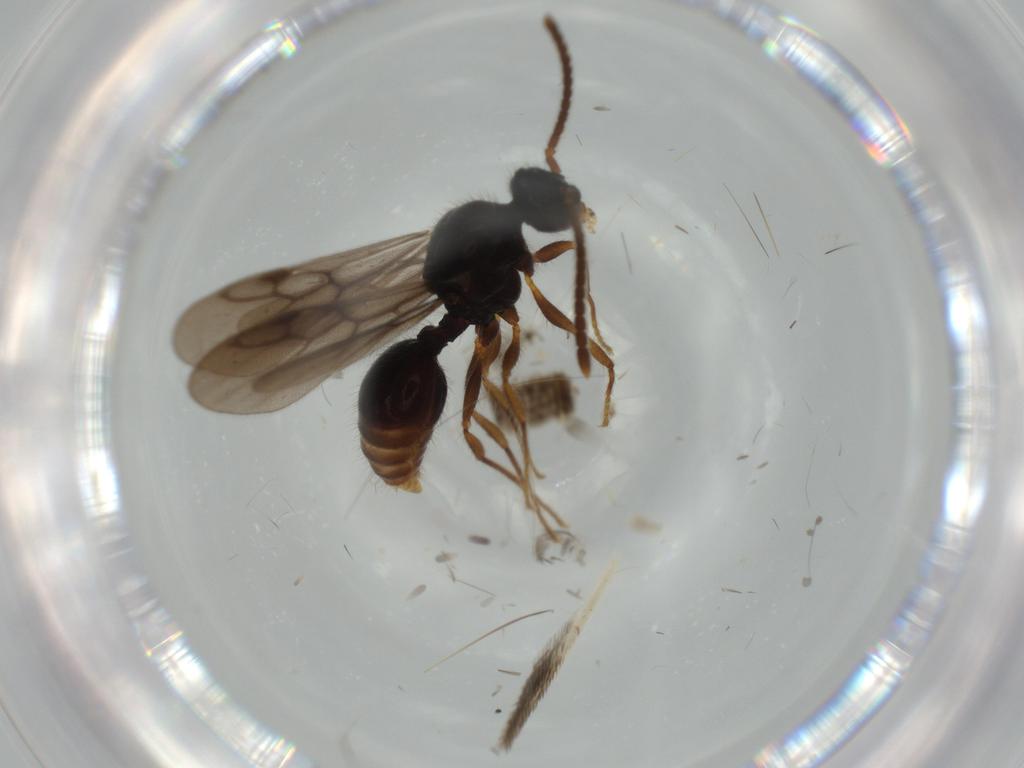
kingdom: Animalia
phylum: Arthropoda
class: Insecta
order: Hymenoptera
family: Formicidae
